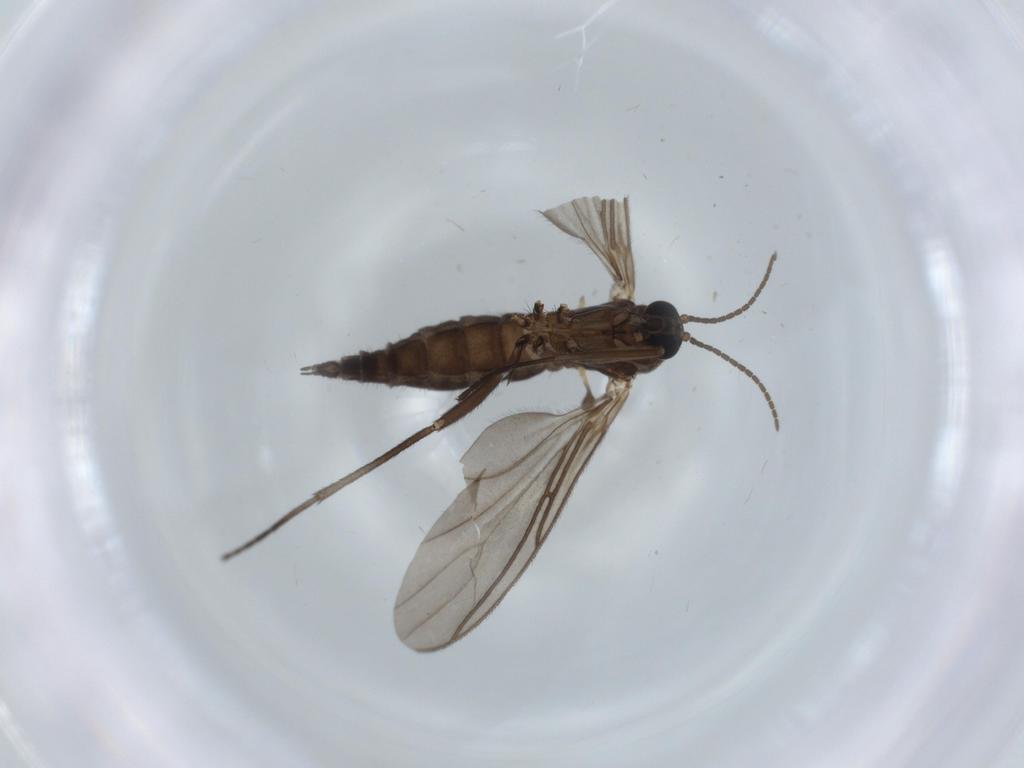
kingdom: Animalia
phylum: Arthropoda
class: Insecta
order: Diptera
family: Sciaridae
